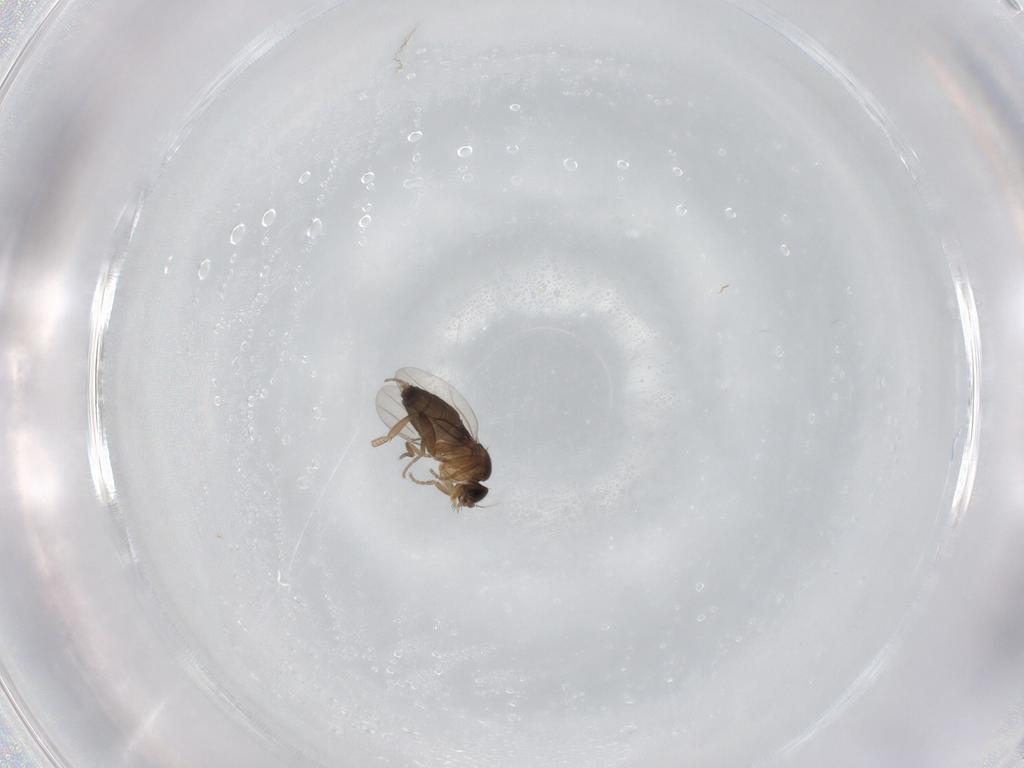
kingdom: Animalia
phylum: Arthropoda
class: Insecta
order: Diptera
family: Phoridae
